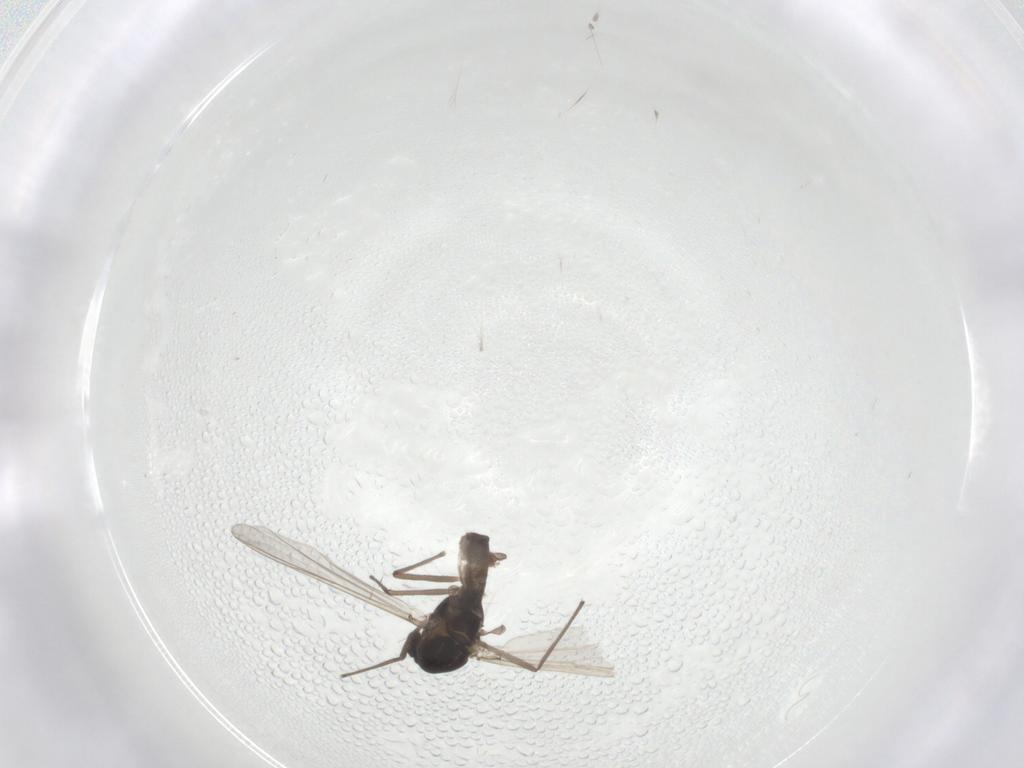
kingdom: Animalia
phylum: Arthropoda
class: Insecta
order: Diptera
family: Chironomidae
